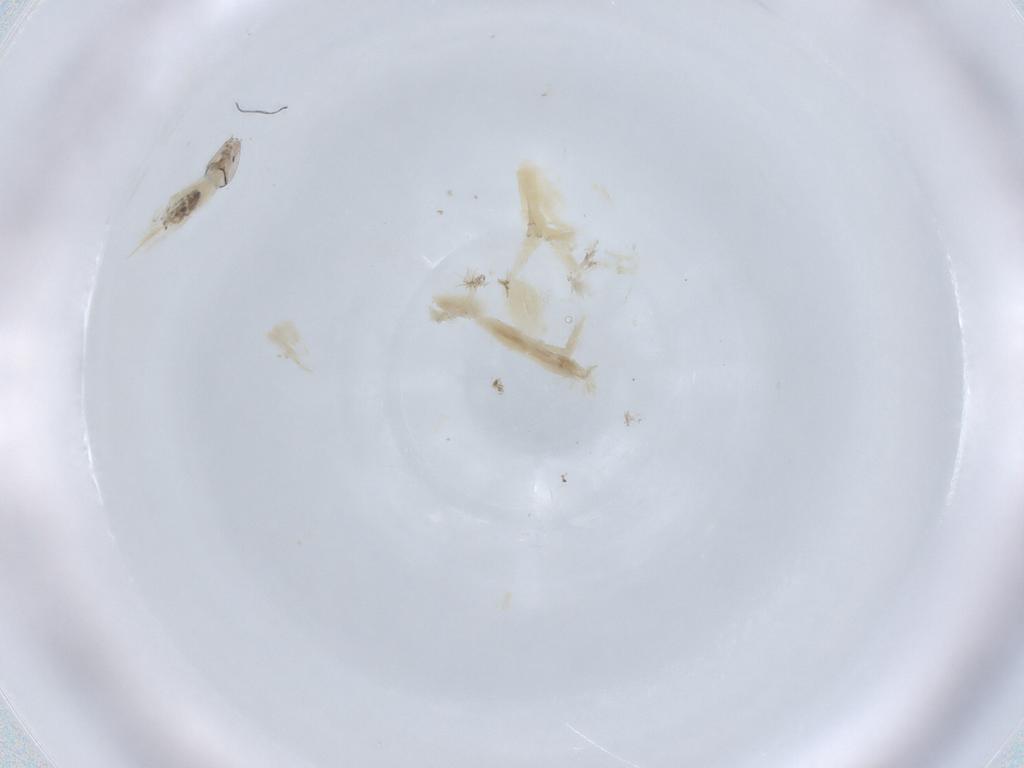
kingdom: Animalia
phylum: Arthropoda
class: Insecta
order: Diptera
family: Chironomidae
